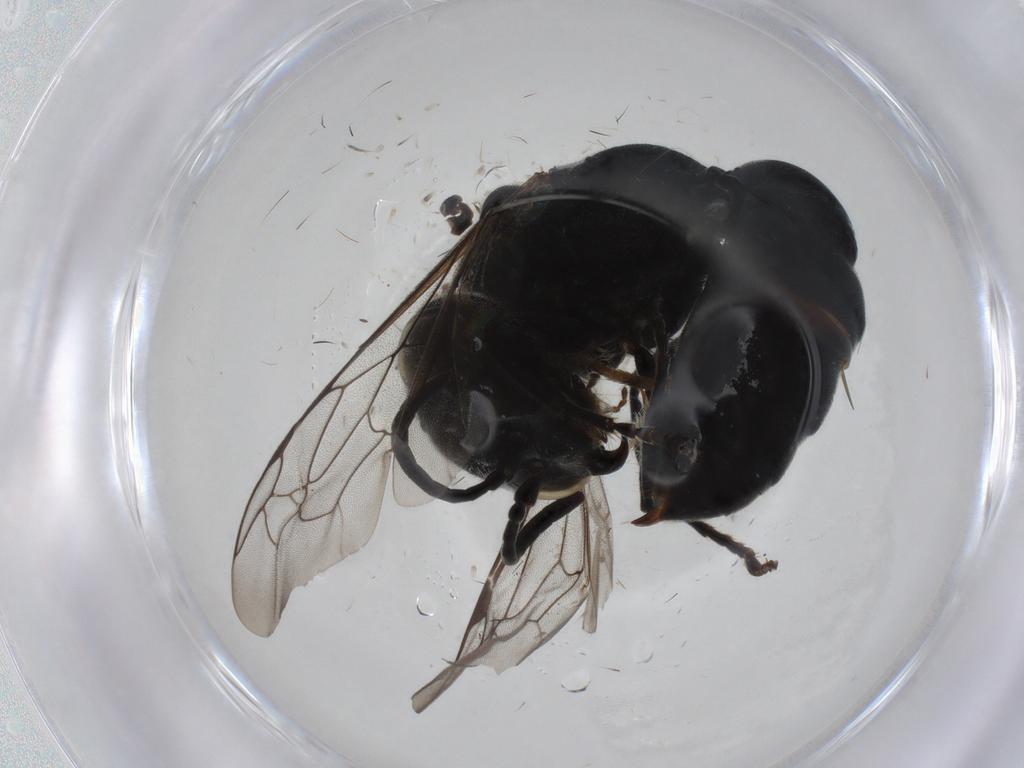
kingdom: Animalia
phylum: Arthropoda
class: Insecta
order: Hymenoptera
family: Crabronidae
